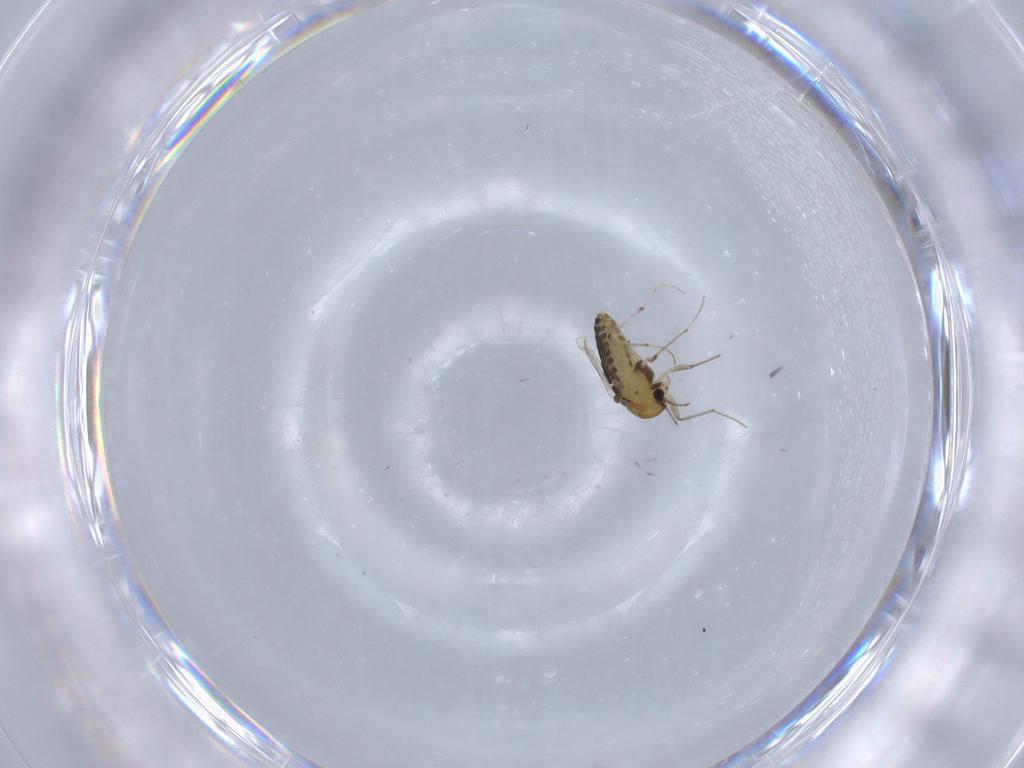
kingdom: Animalia
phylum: Arthropoda
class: Insecta
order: Diptera
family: Chironomidae
